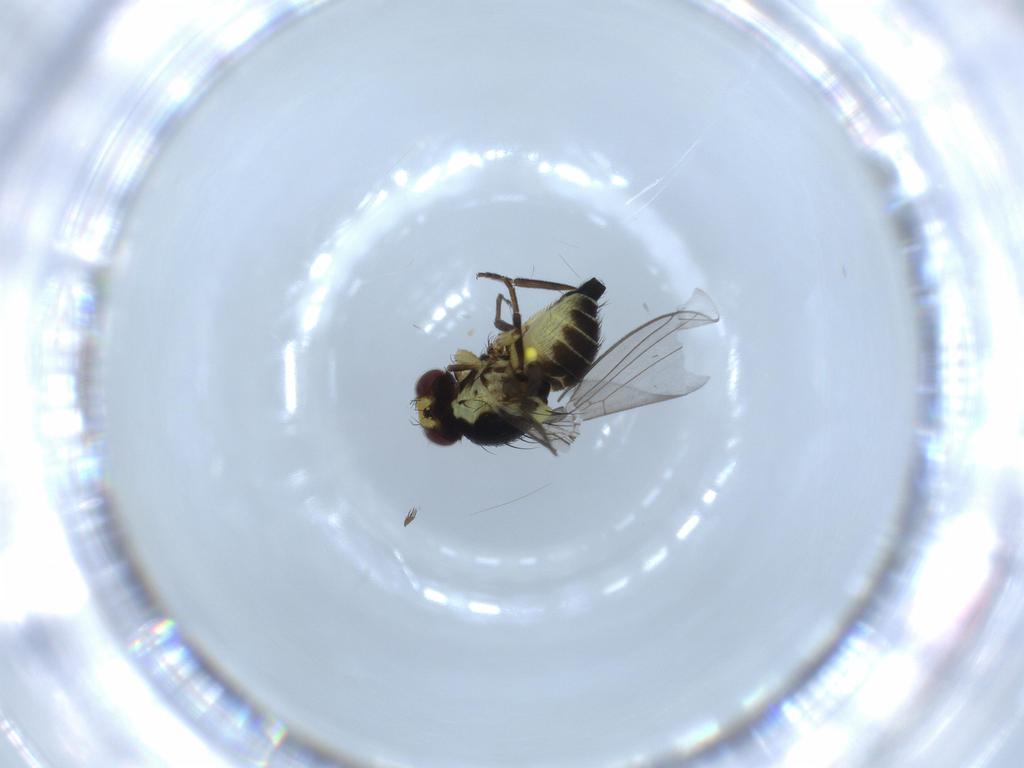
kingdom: Animalia
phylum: Arthropoda
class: Insecta
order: Diptera
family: Agromyzidae
